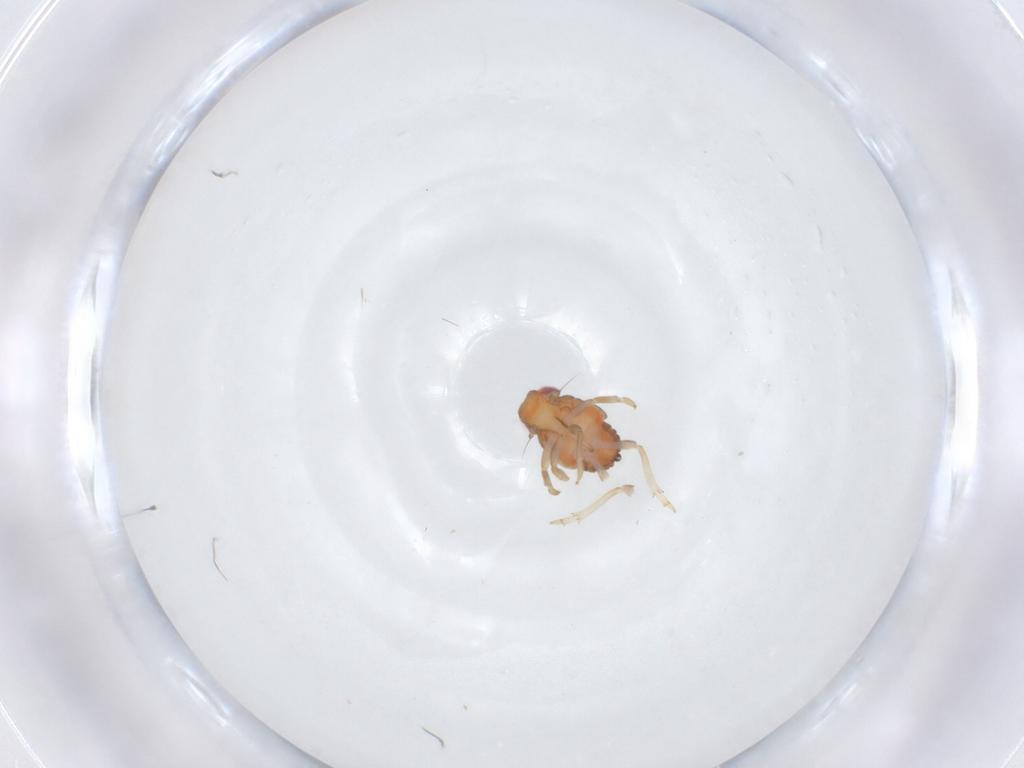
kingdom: Animalia
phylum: Arthropoda
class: Insecta
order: Hemiptera
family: Issidae
